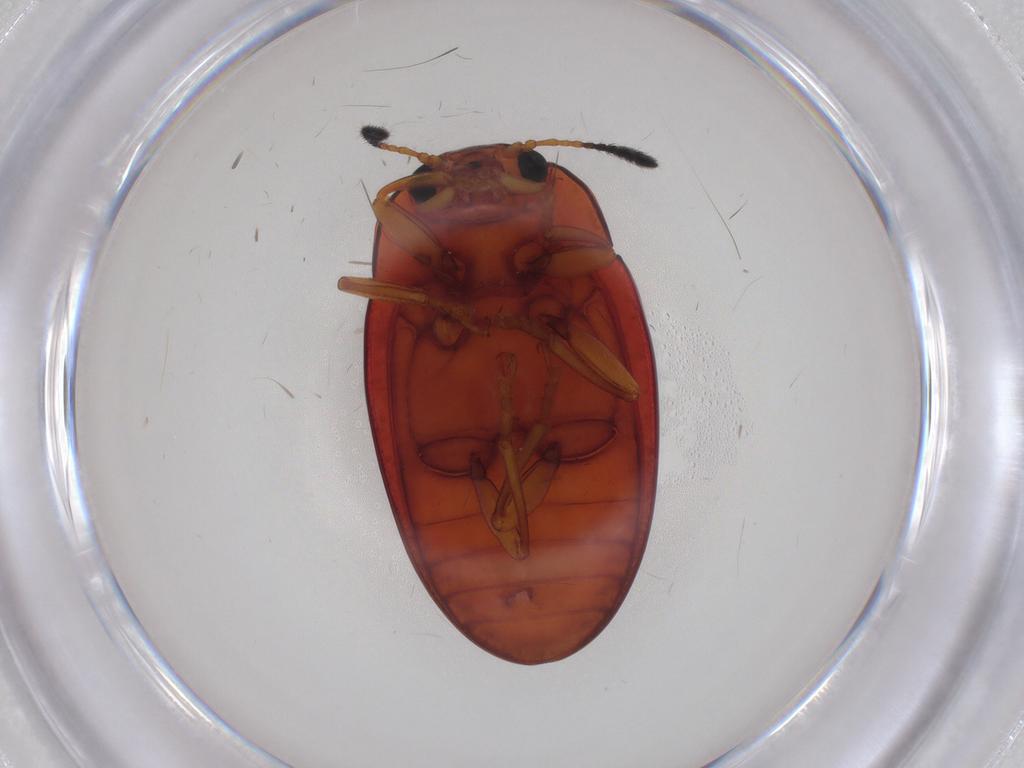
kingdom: Animalia
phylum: Arthropoda
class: Insecta
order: Coleoptera
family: Erotylidae
